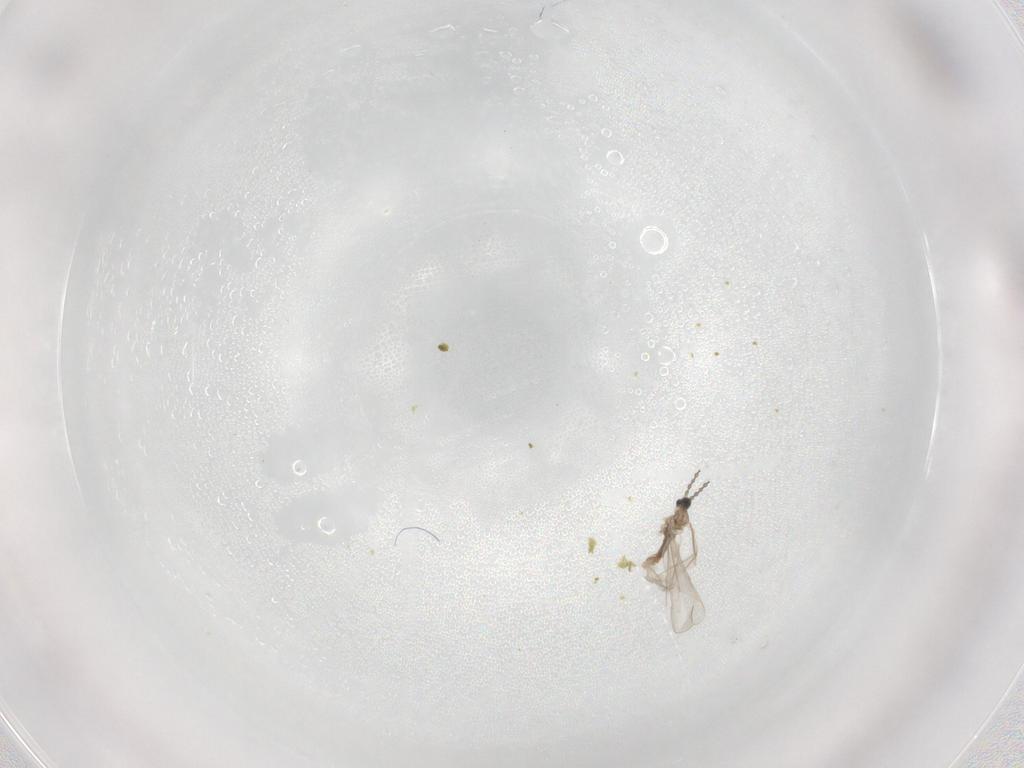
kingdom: Animalia
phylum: Arthropoda
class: Insecta
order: Diptera
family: Cecidomyiidae
